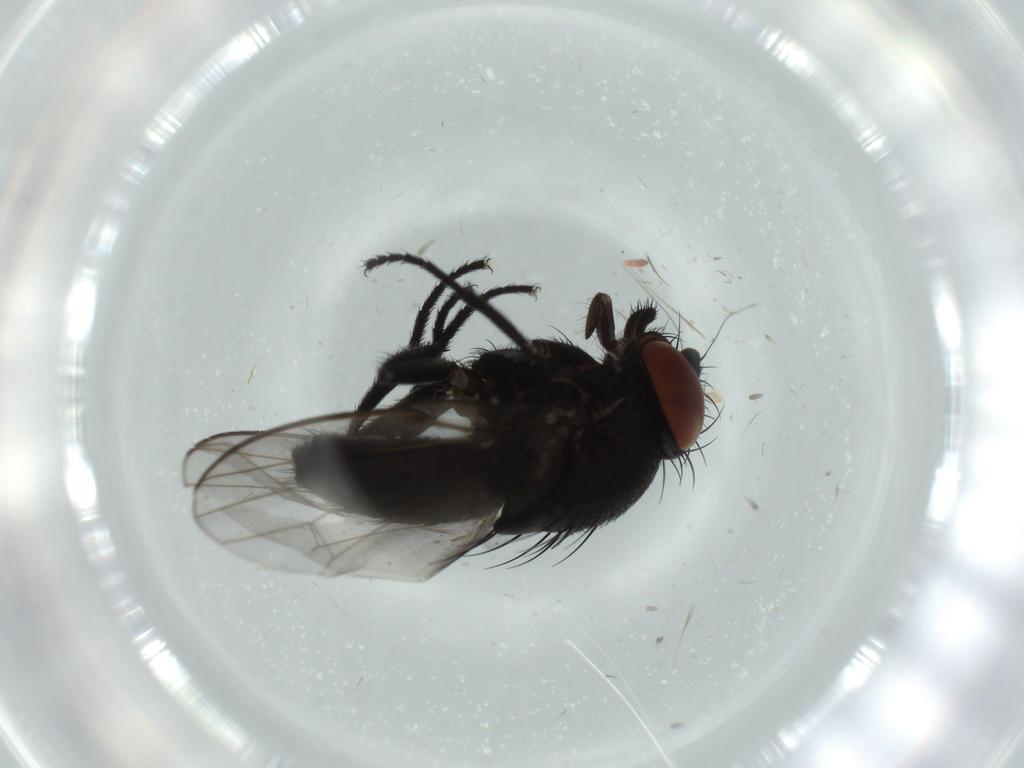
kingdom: Animalia
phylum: Arthropoda
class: Insecta
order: Diptera
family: Milichiidae
